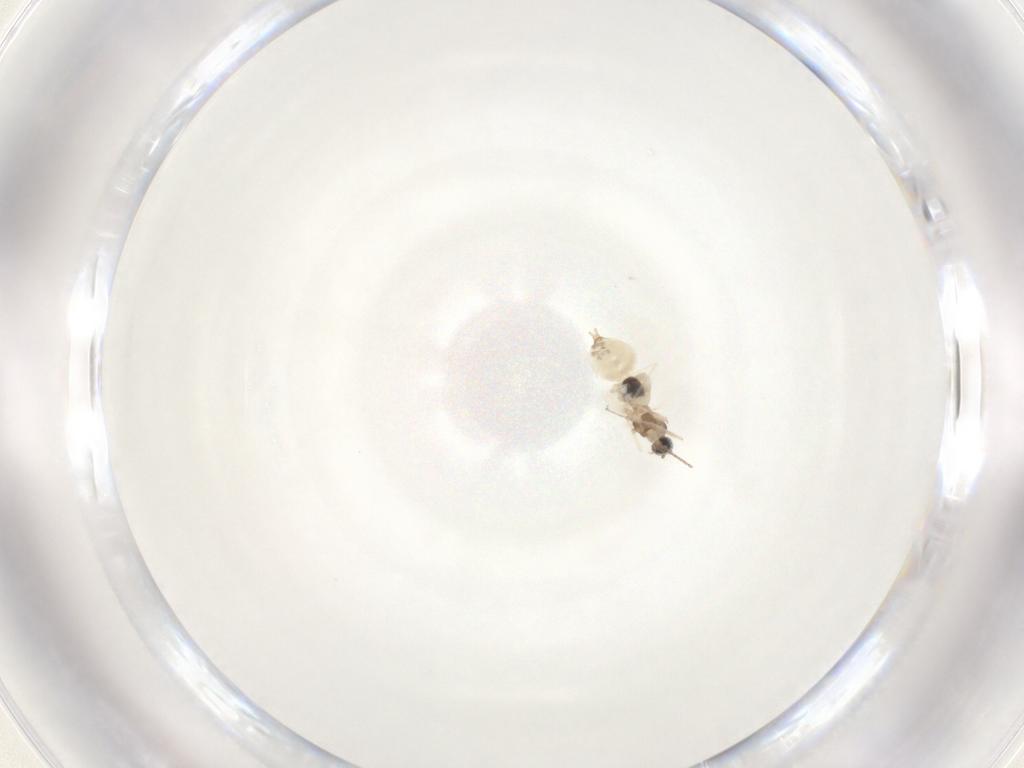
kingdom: Animalia
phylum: Arthropoda
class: Insecta
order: Diptera
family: Cecidomyiidae
